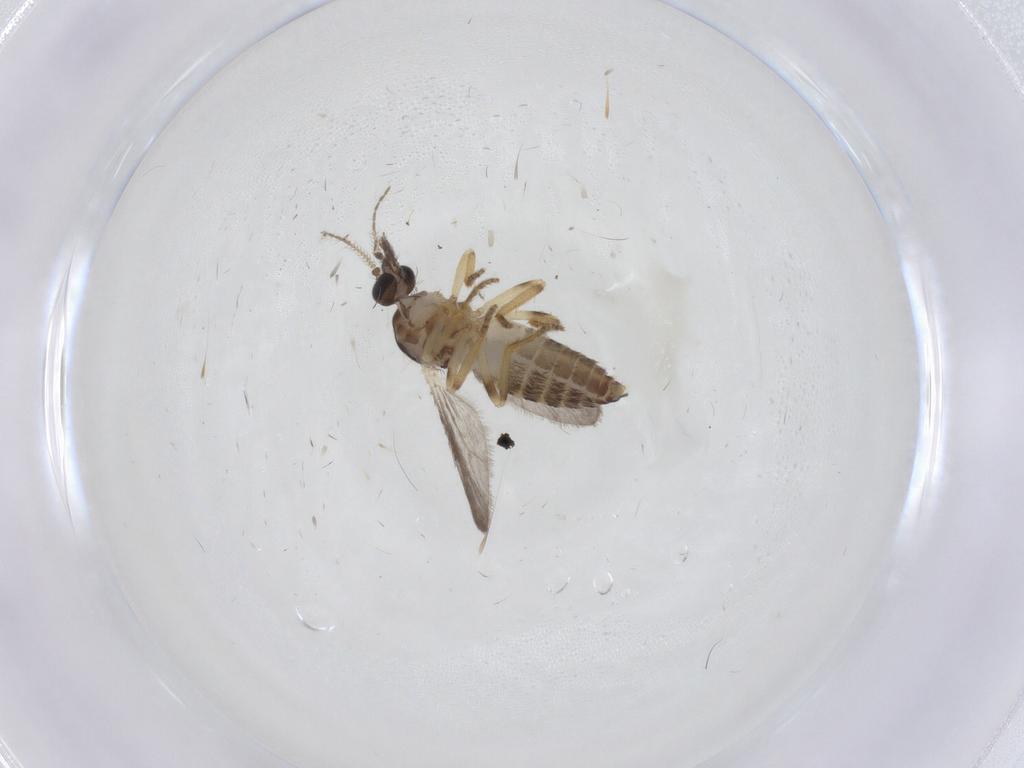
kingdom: Animalia
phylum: Arthropoda
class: Insecta
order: Diptera
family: Ceratopogonidae
